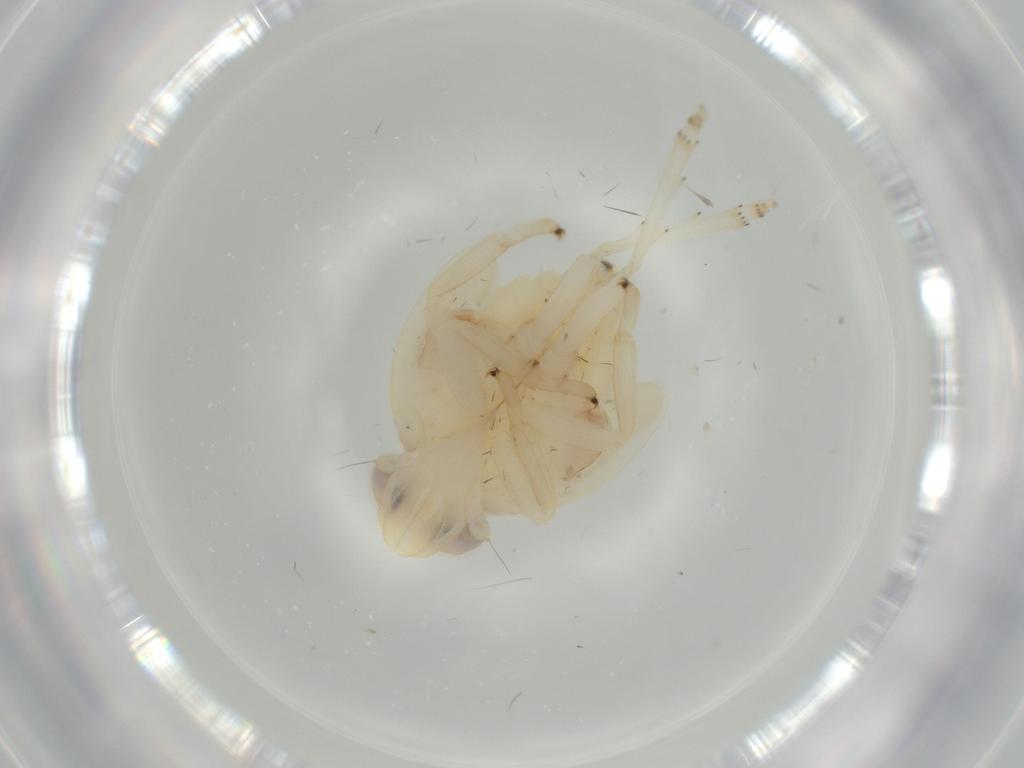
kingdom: Animalia
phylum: Arthropoda
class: Insecta
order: Hemiptera
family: Nogodinidae
